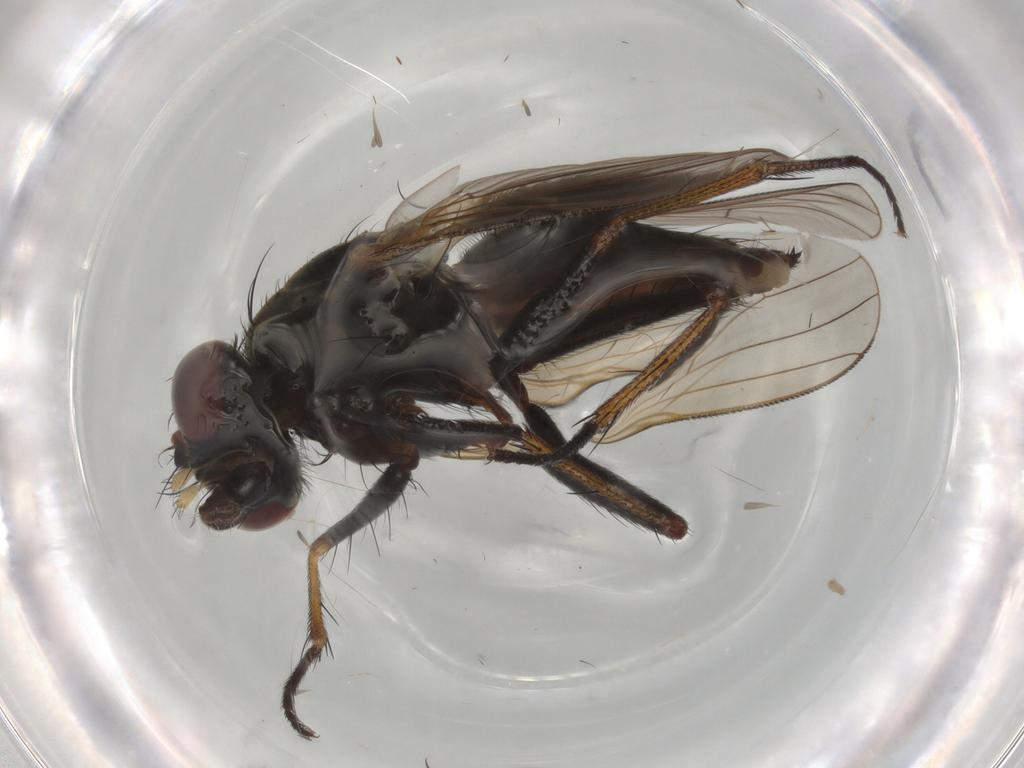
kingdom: Animalia
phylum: Arthropoda
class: Insecta
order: Diptera
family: Muscidae
